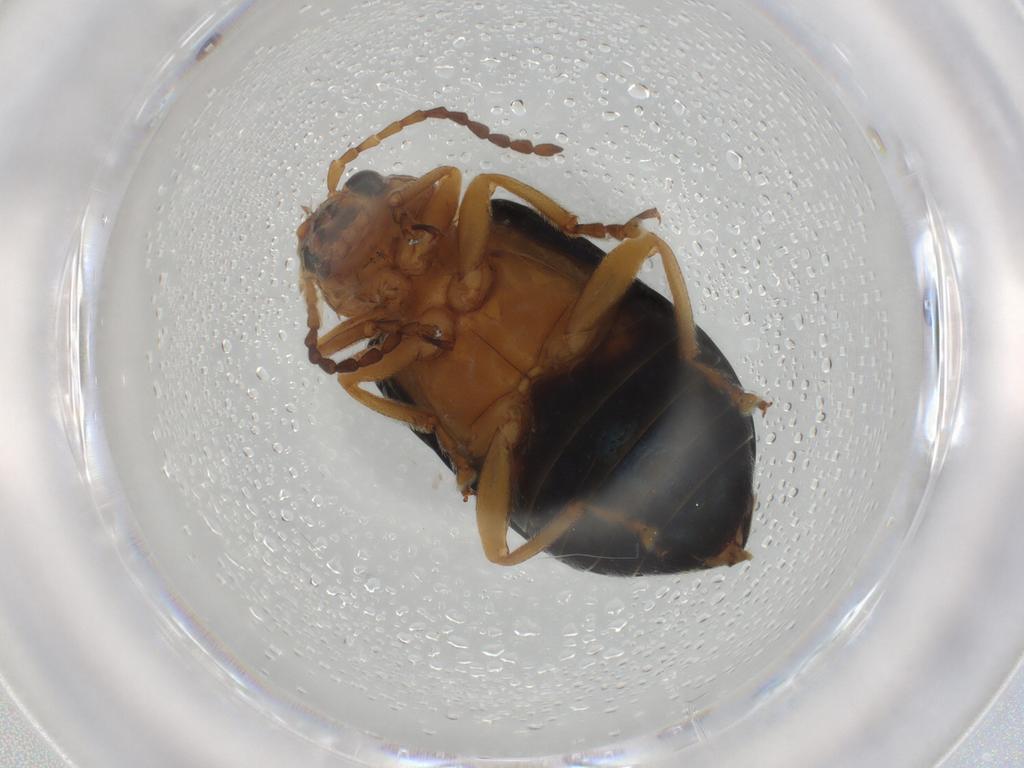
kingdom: Animalia
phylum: Arthropoda
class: Insecta
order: Coleoptera
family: Chrysomelidae
